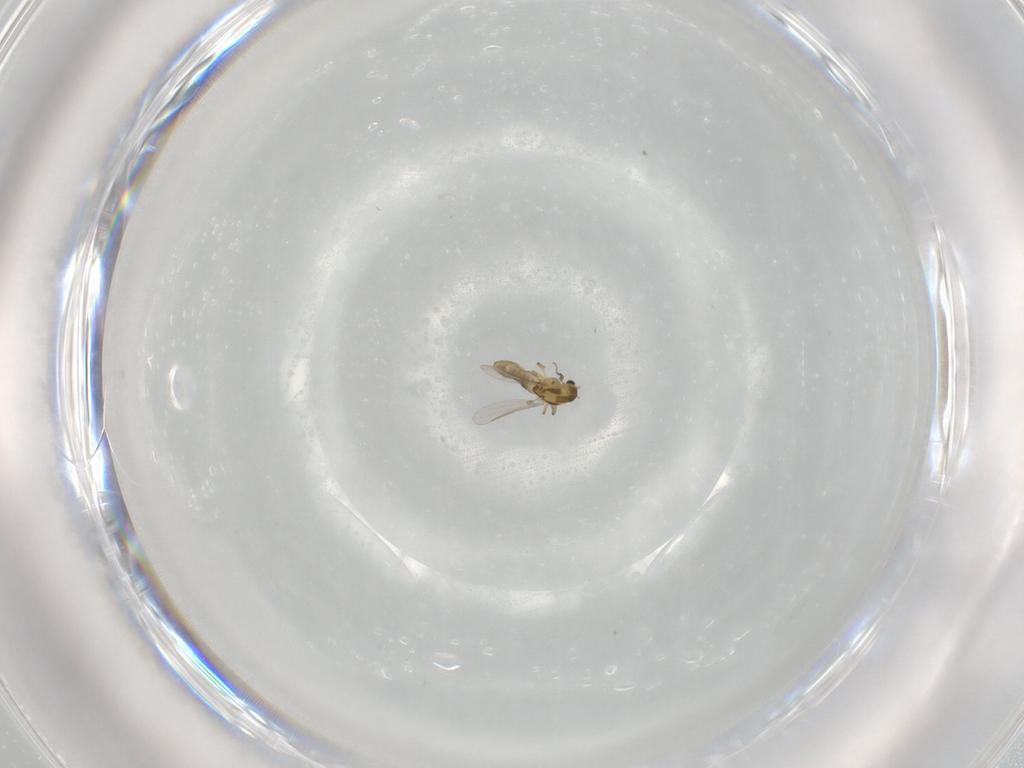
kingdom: Animalia
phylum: Arthropoda
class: Insecta
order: Diptera
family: Chironomidae
